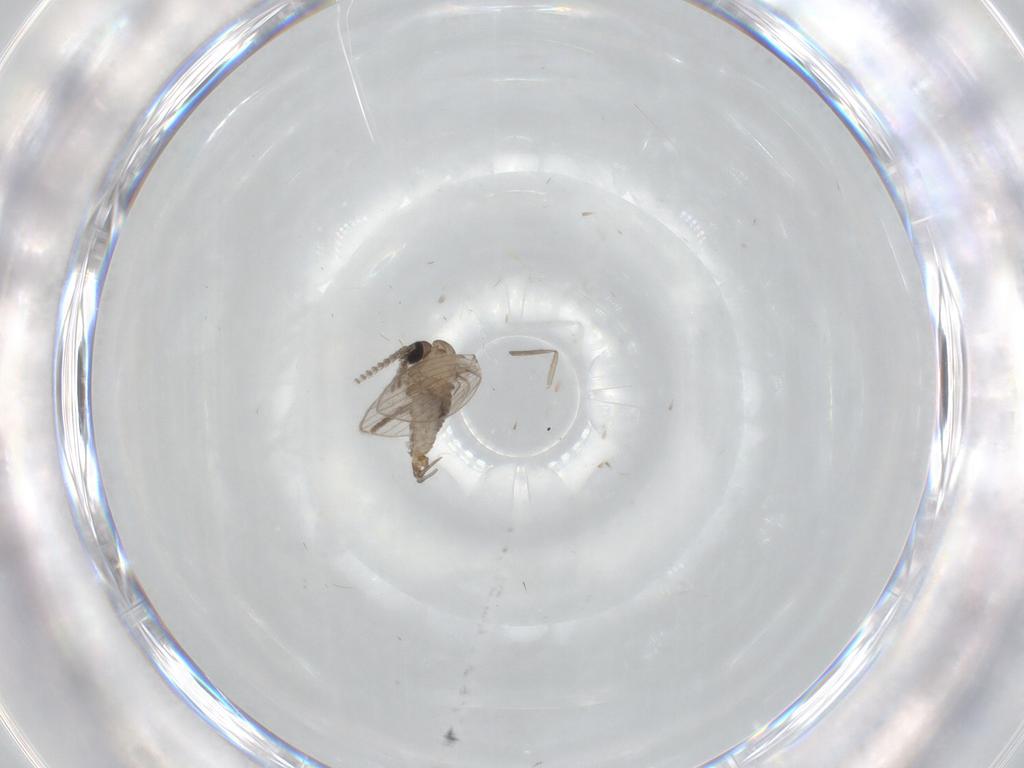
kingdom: Animalia
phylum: Arthropoda
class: Insecta
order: Diptera
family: Psychodidae
